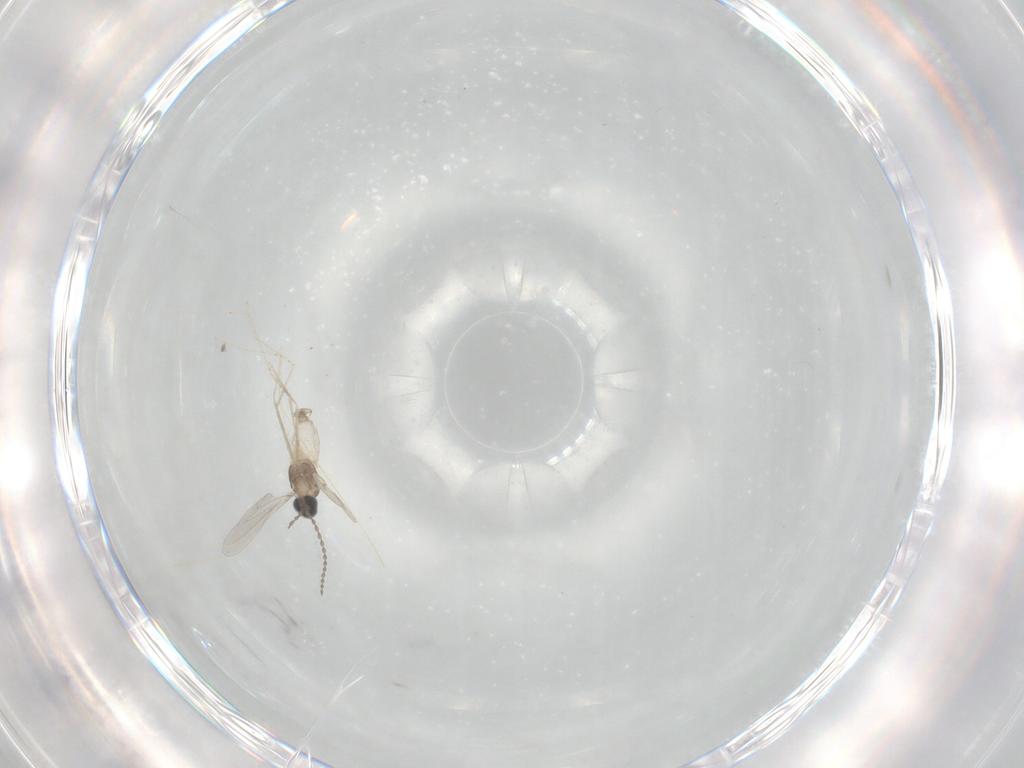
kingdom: Animalia
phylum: Arthropoda
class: Insecta
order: Diptera
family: Cecidomyiidae
